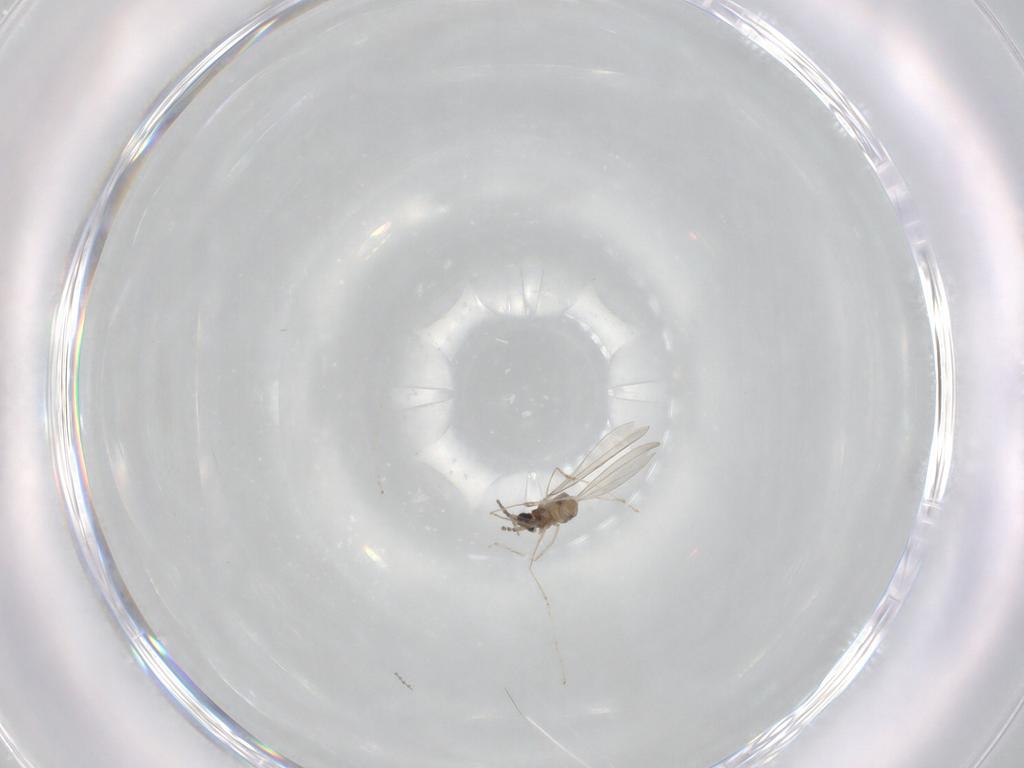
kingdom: Animalia
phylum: Arthropoda
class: Insecta
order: Diptera
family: Cecidomyiidae
